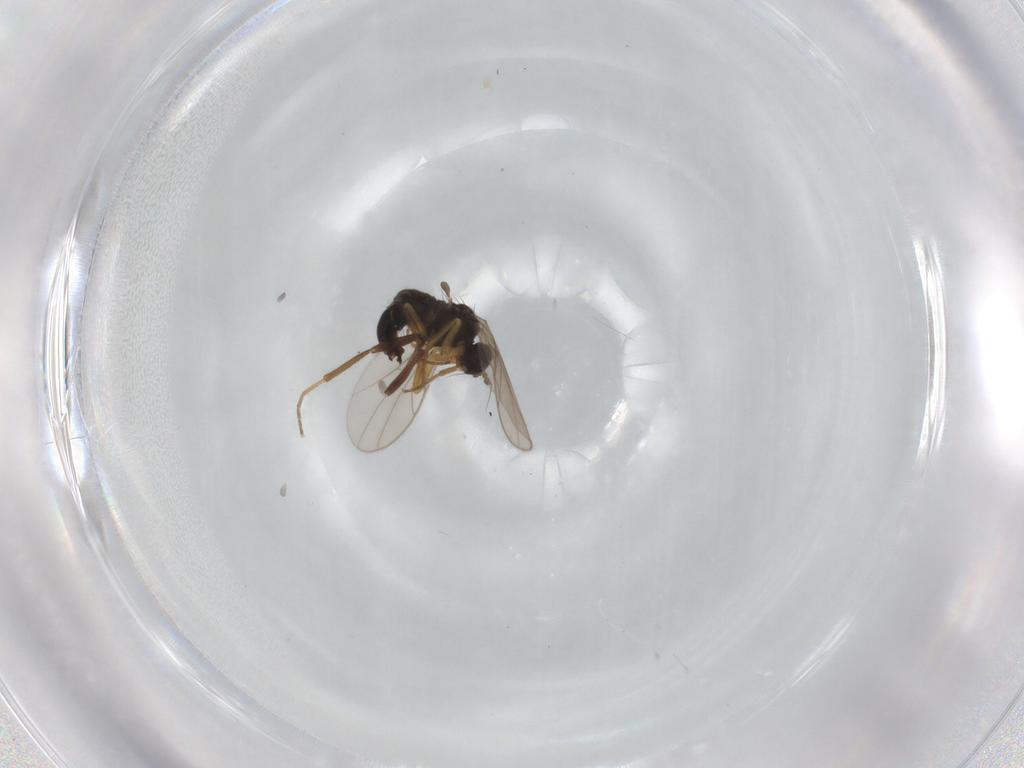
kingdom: Animalia
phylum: Arthropoda
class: Insecta
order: Diptera
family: Hybotidae
